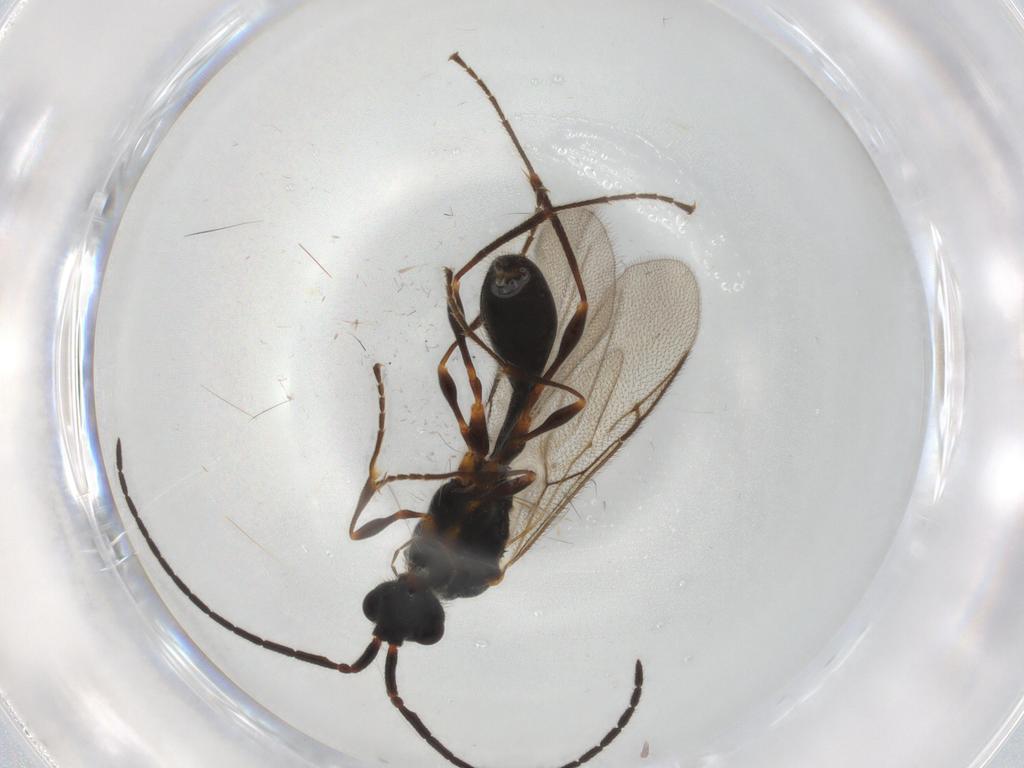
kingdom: Animalia
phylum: Arthropoda
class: Insecta
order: Hymenoptera
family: Diapriidae
